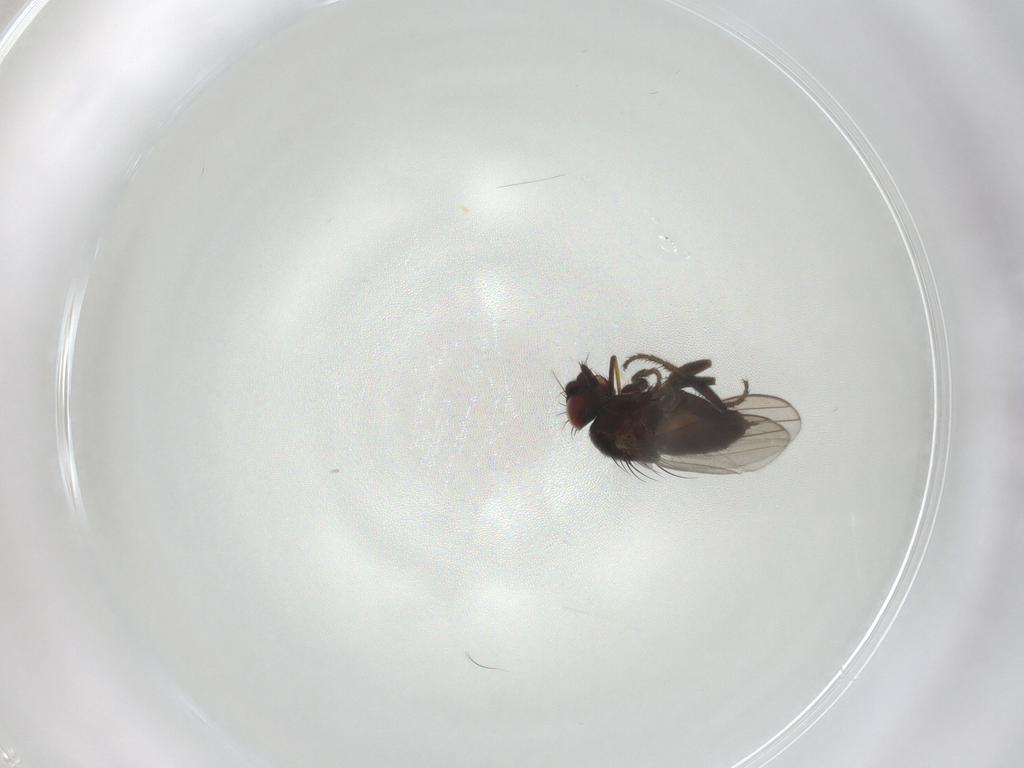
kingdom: Animalia
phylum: Arthropoda
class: Insecta
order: Diptera
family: Milichiidae
